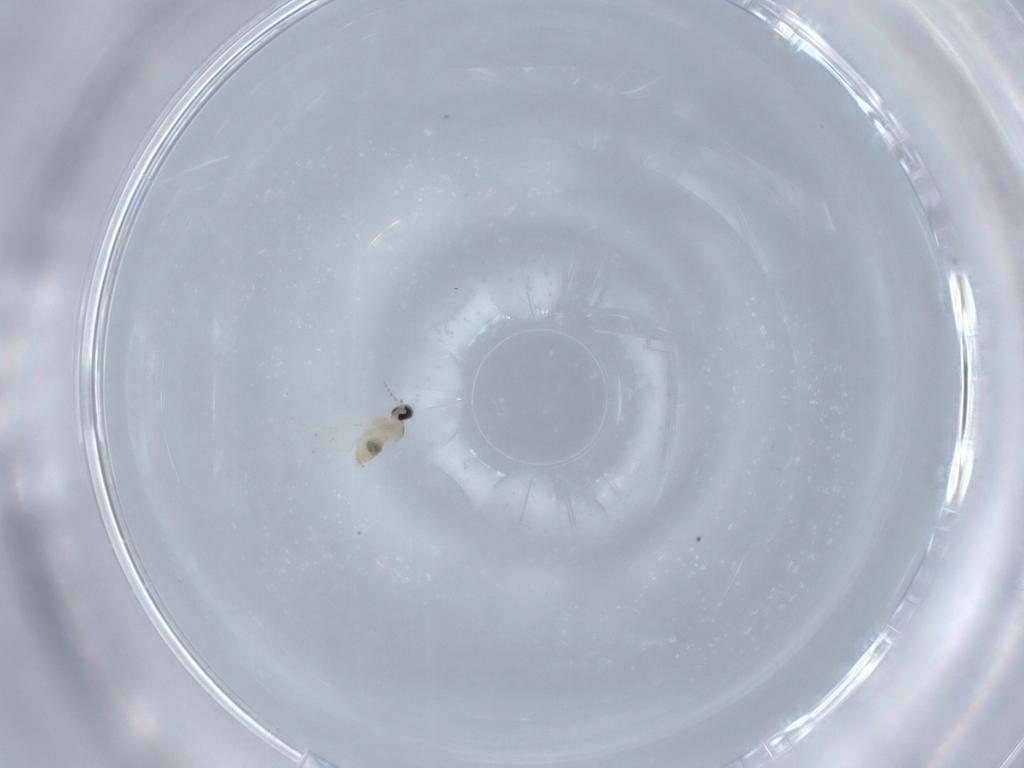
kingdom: Animalia
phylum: Arthropoda
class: Insecta
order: Diptera
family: Cecidomyiidae
